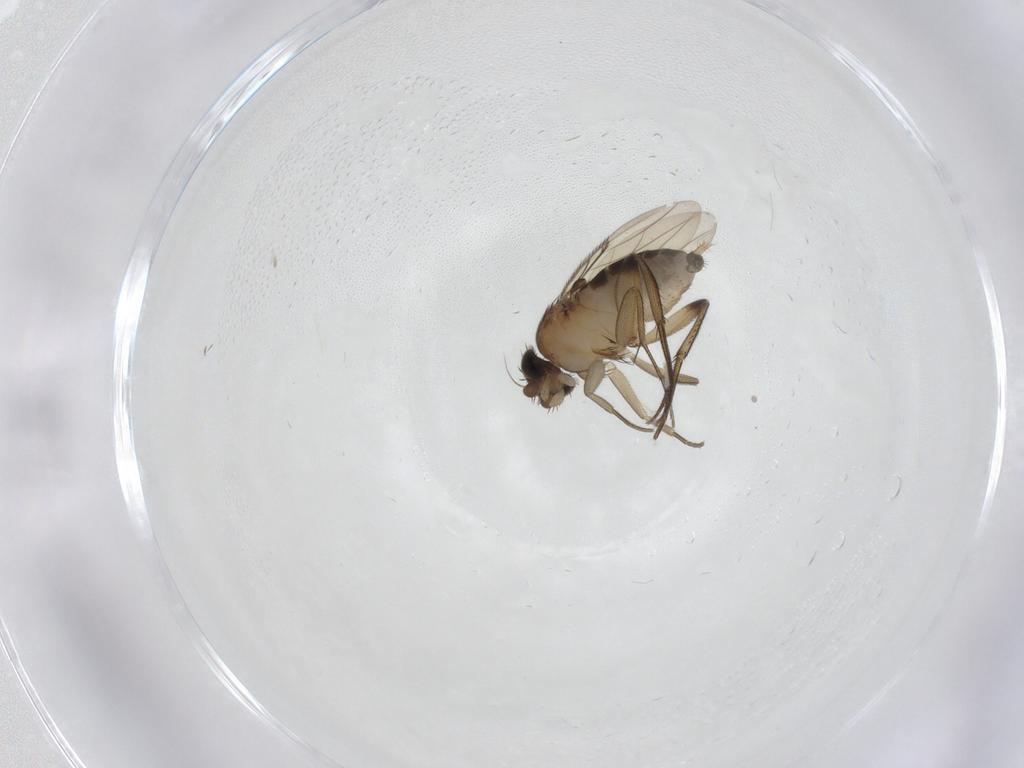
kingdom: Animalia
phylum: Arthropoda
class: Insecta
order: Diptera
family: Phoridae
